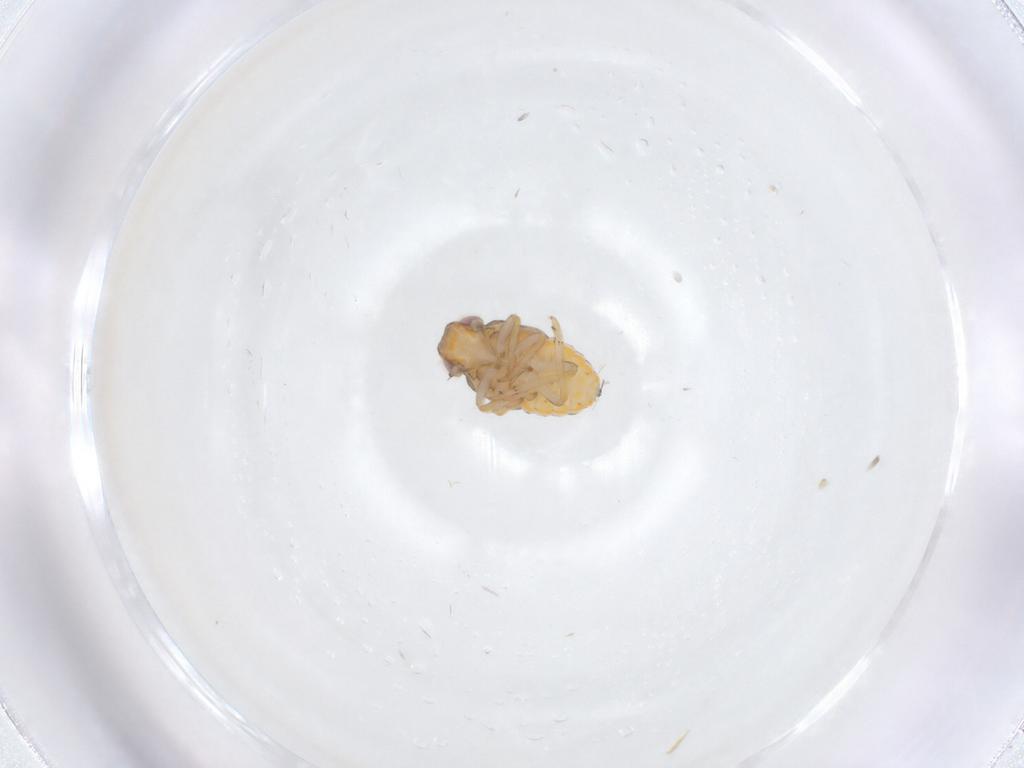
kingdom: Animalia
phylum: Arthropoda
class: Insecta
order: Hemiptera
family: Issidae
